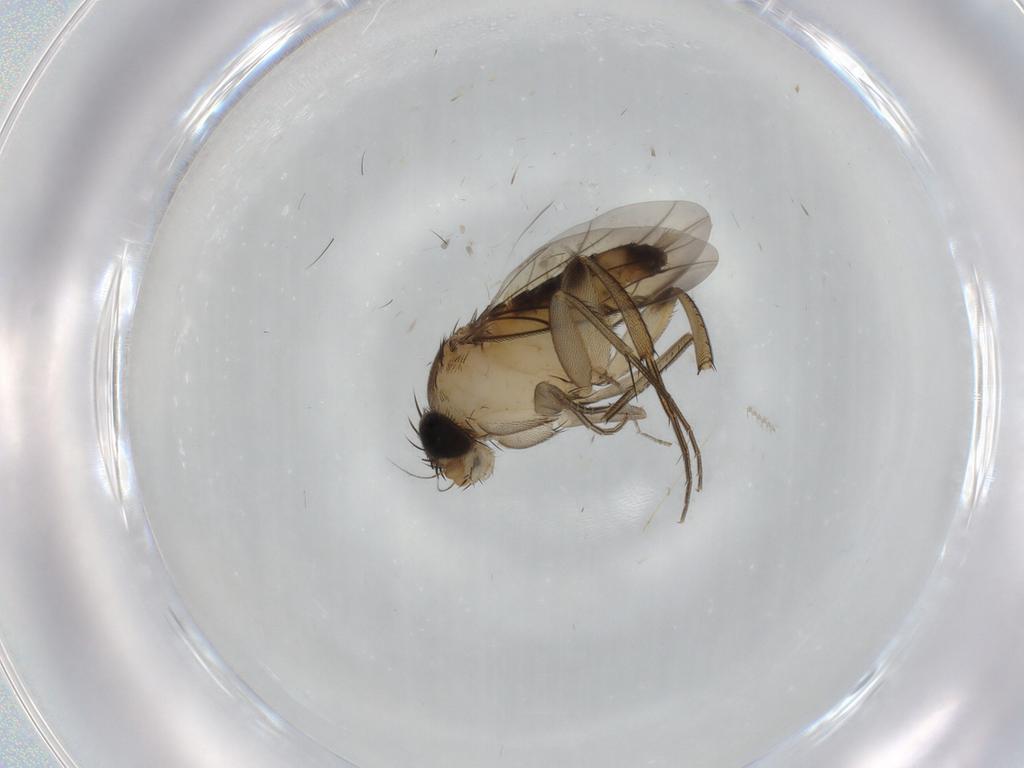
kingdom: Animalia
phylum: Arthropoda
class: Insecta
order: Diptera
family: Phoridae
